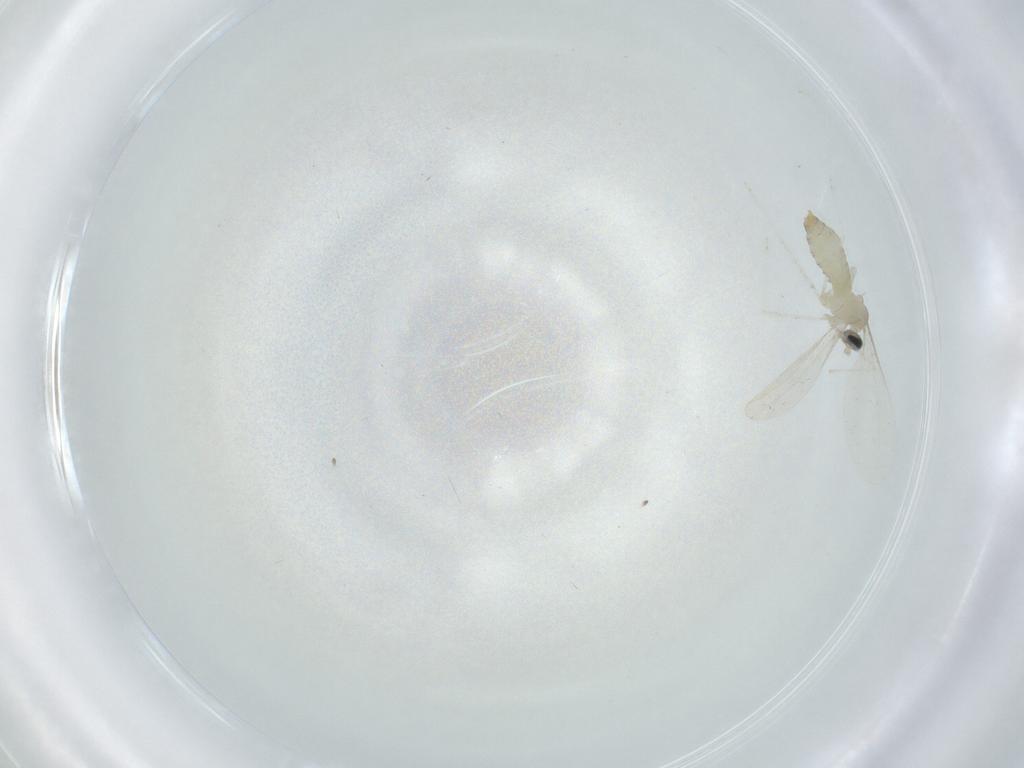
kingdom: Animalia
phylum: Arthropoda
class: Insecta
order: Diptera
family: Cecidomyiidae
